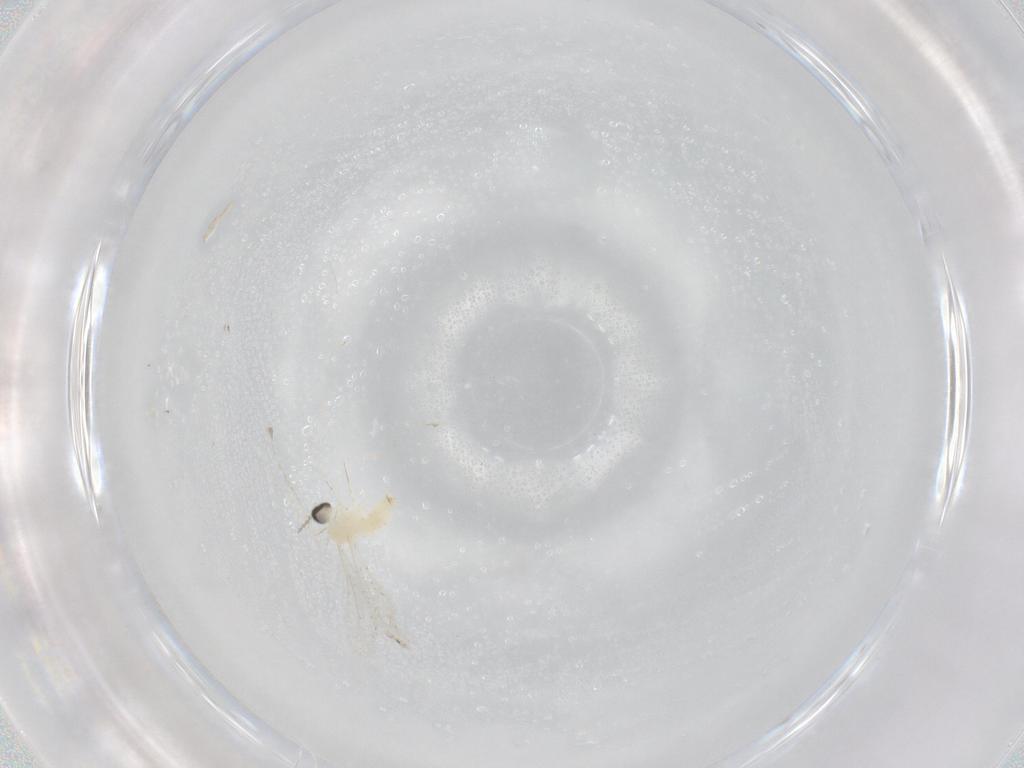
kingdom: Animalia
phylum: Arthropoda
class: Insecta
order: Diptera
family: Cecidomyiidae
